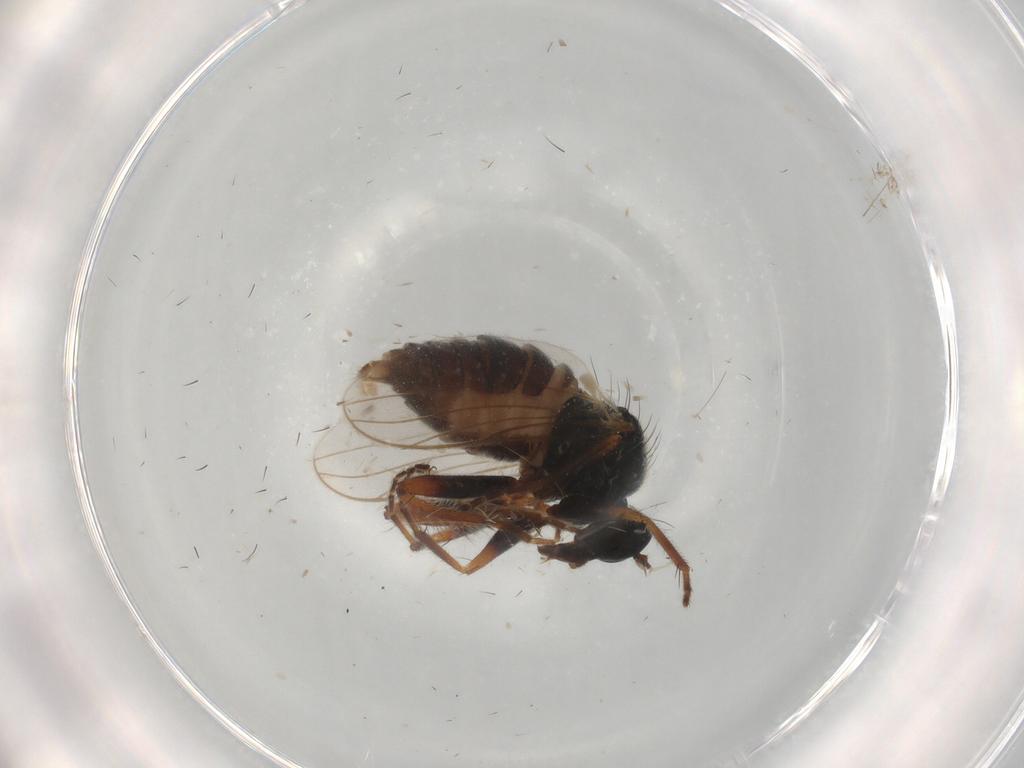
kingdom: Animalia
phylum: Arthropoda
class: Insecta
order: Diptera
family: Hybotidae
